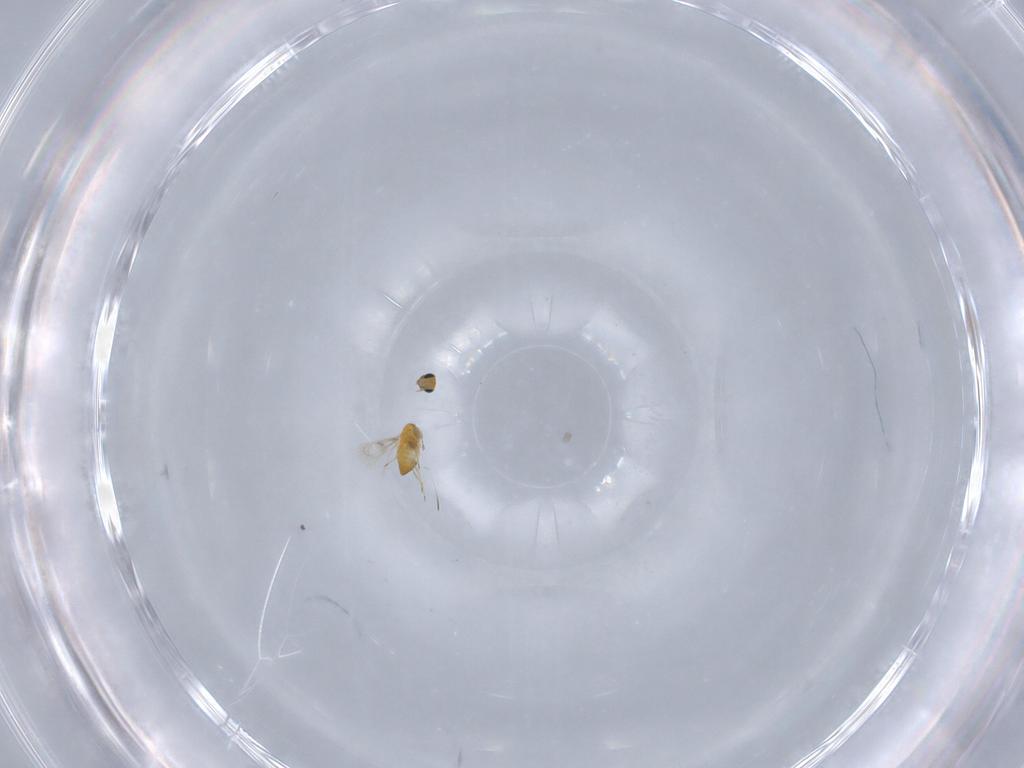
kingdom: Animalia
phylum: Arthropoda
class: Insecta
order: Hymenoptera
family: Trichogrammatidae
